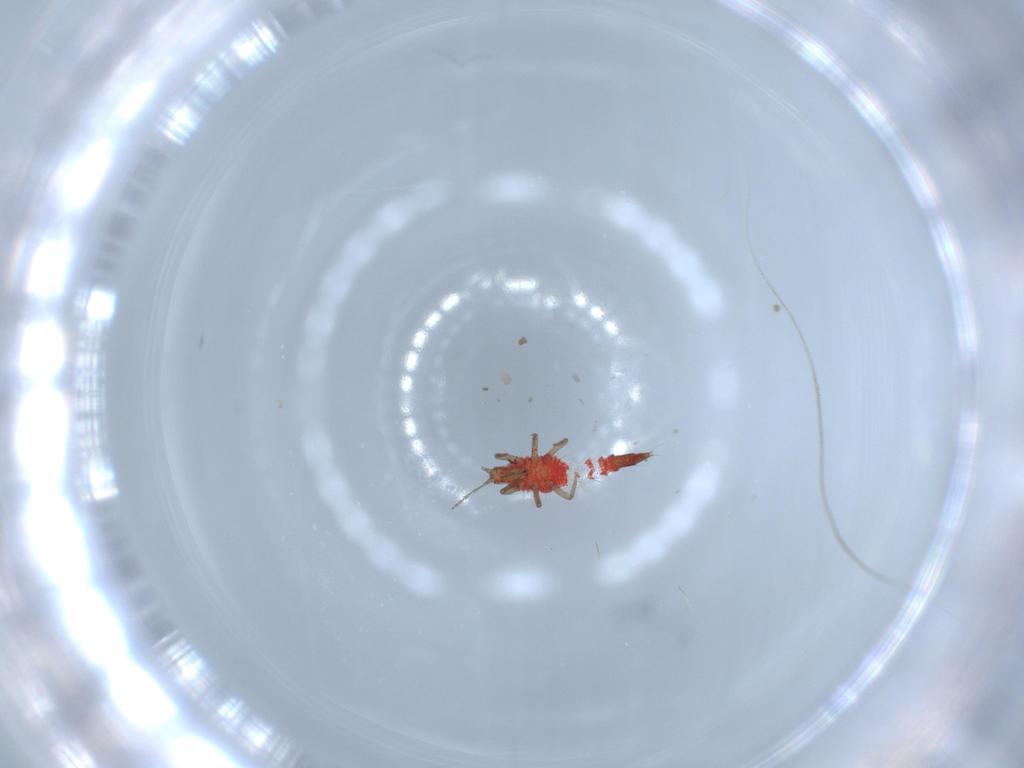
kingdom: Animalia
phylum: Arthropoda
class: Insecta
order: Thysanoptera
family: Phlaeothripidae
